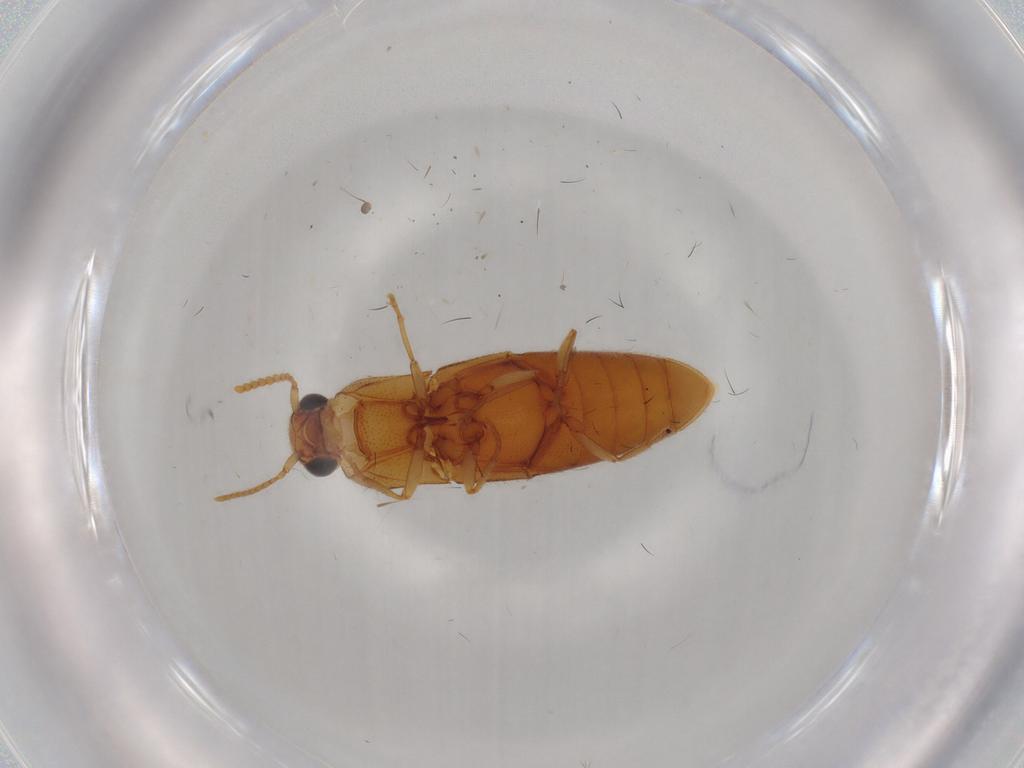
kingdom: Animalia
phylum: Arthropoda
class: Insecta
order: Coleoptera
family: Elateridae
